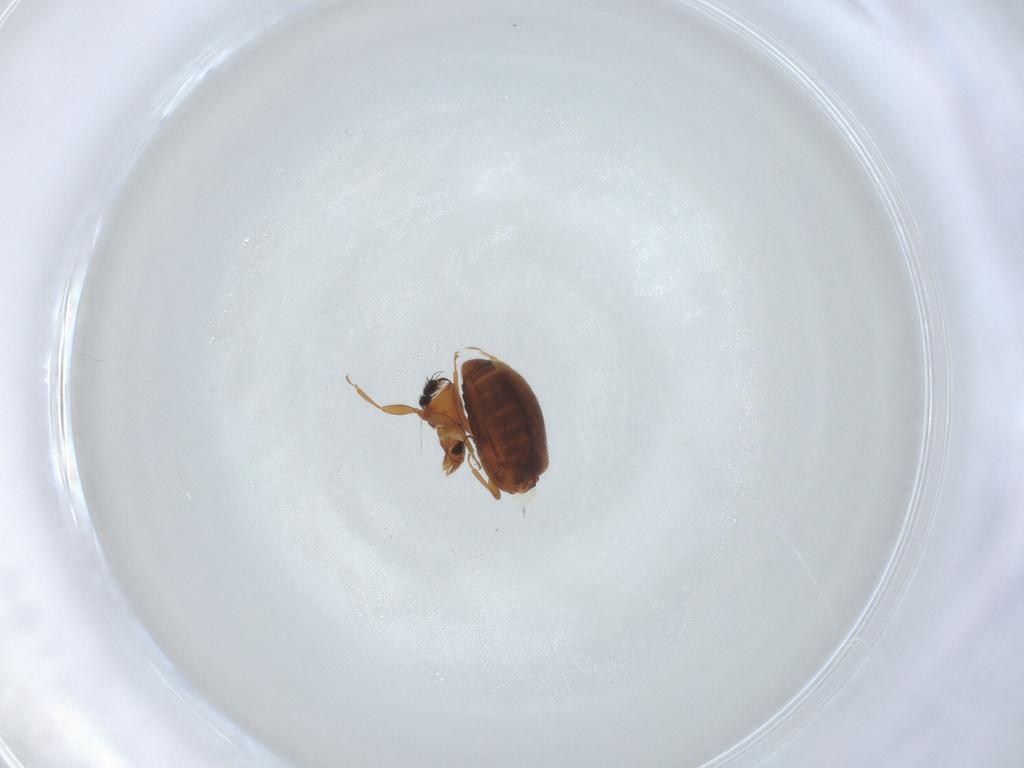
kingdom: Animalia
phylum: Arthropoda
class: Insecta
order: Coleoptera
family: Latridiidae
